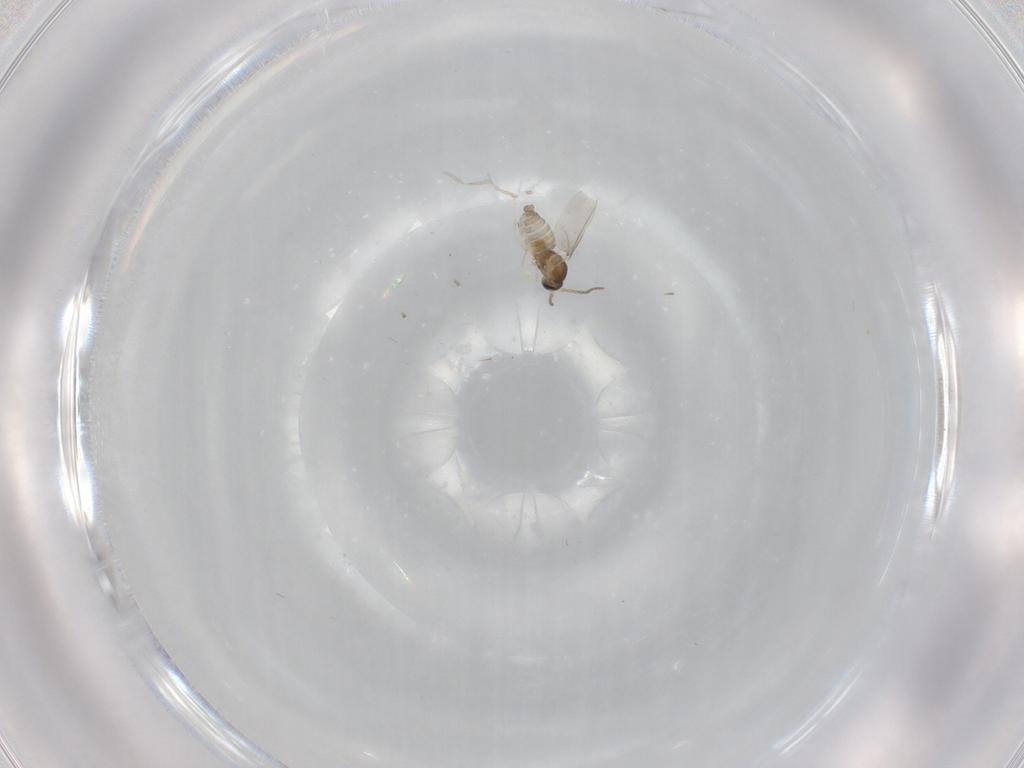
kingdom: Animalia
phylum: Arthropoda
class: Insecta
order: Diptera
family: Cecidomyiidae
